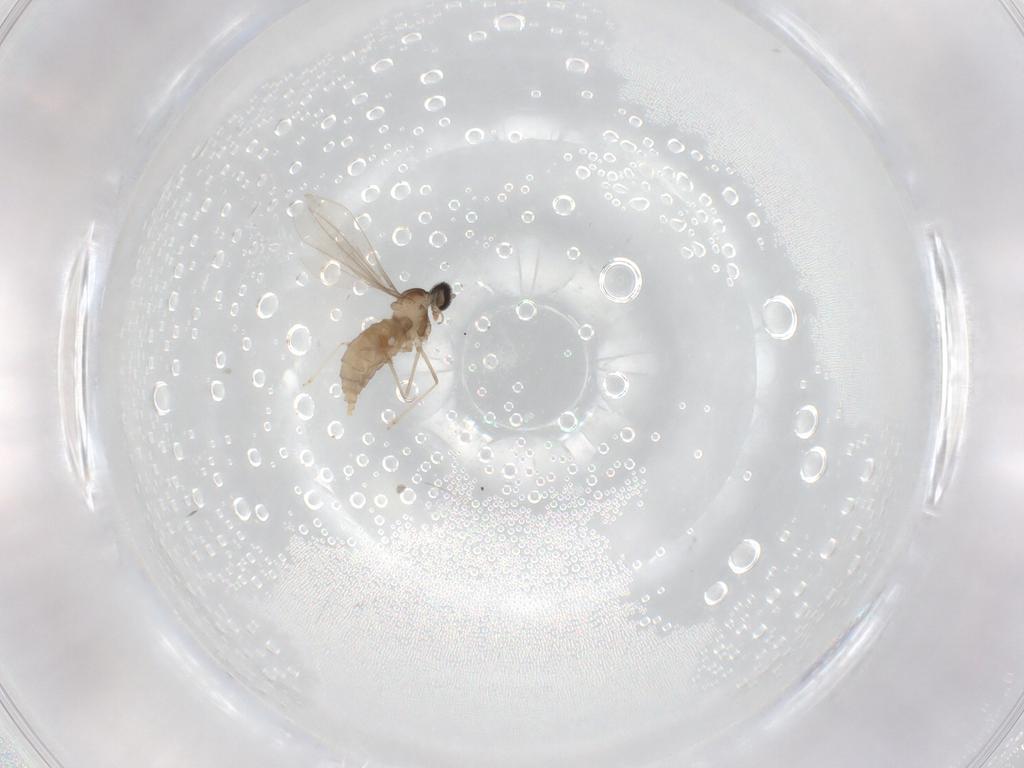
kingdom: Animalia
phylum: Arthropoda
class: Insecta
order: Diptera
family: Cecidomyiidae
